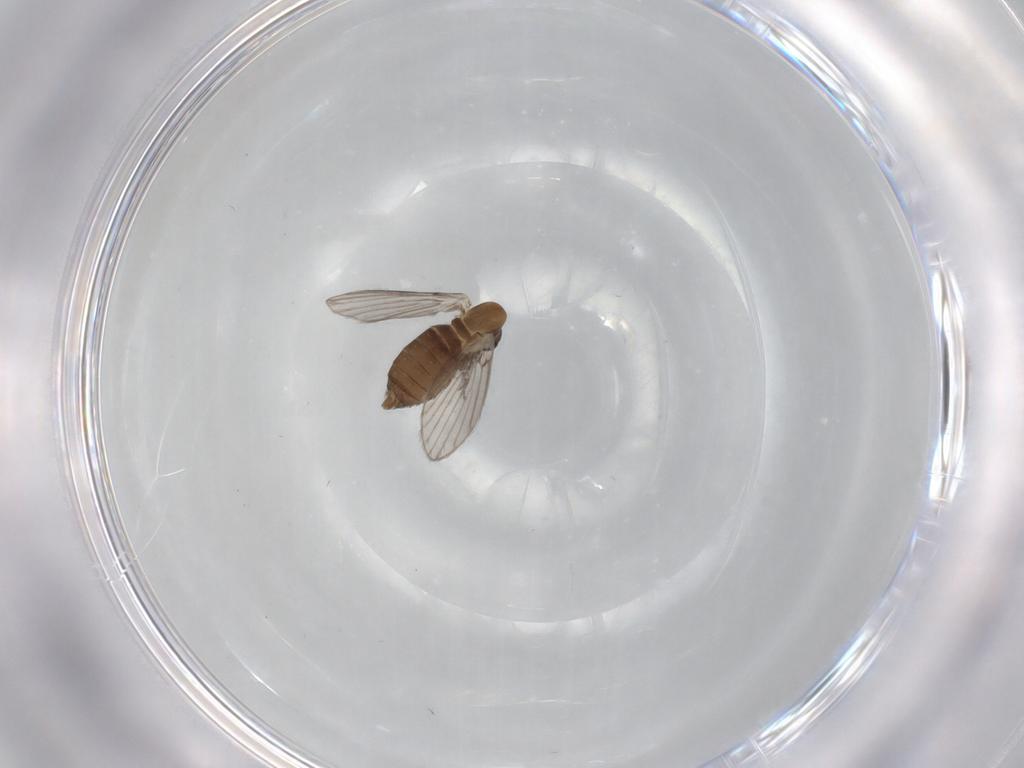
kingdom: Animalia
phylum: Arthropoda
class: Insecta
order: Diptera
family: Psychodidae
